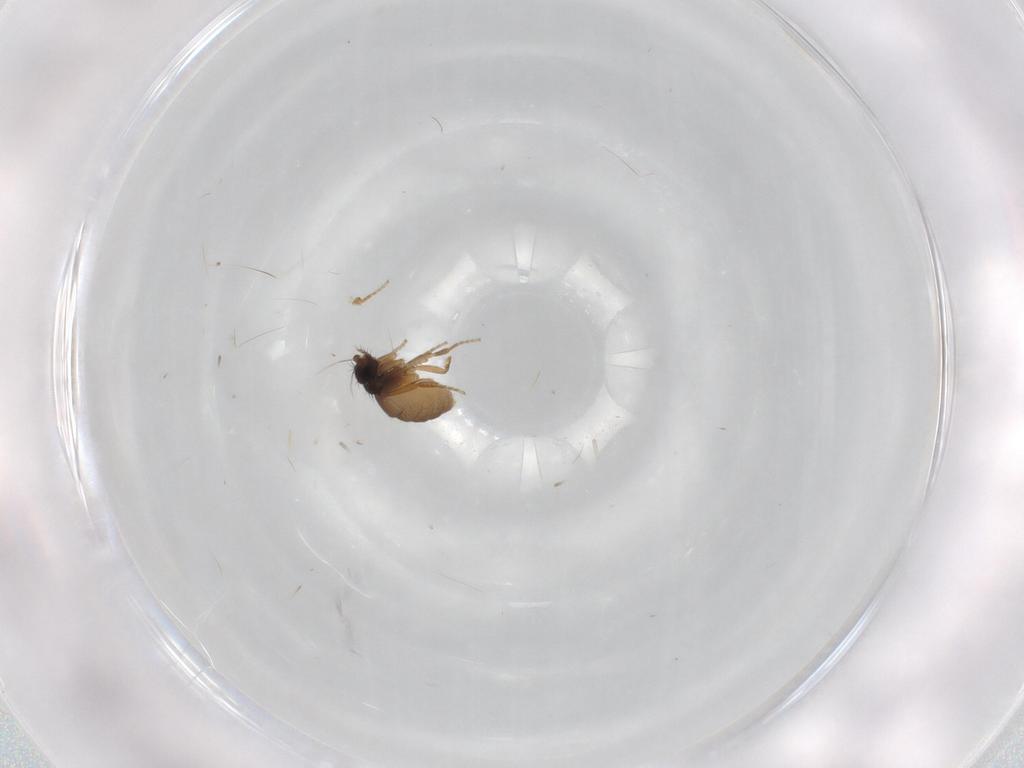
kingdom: Animalia
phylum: Arthropoda
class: Insecta
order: Diptera
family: Phoridae
